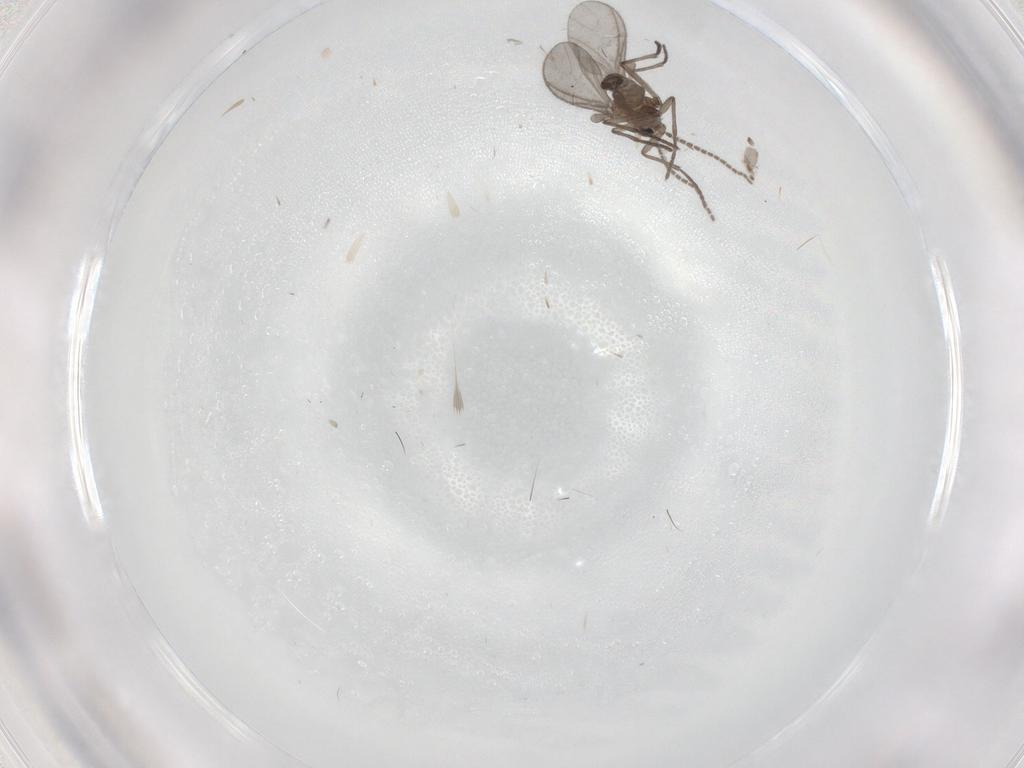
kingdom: Animalia
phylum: Arthropoda
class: Insecta
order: Diptera
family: Sciaridae
